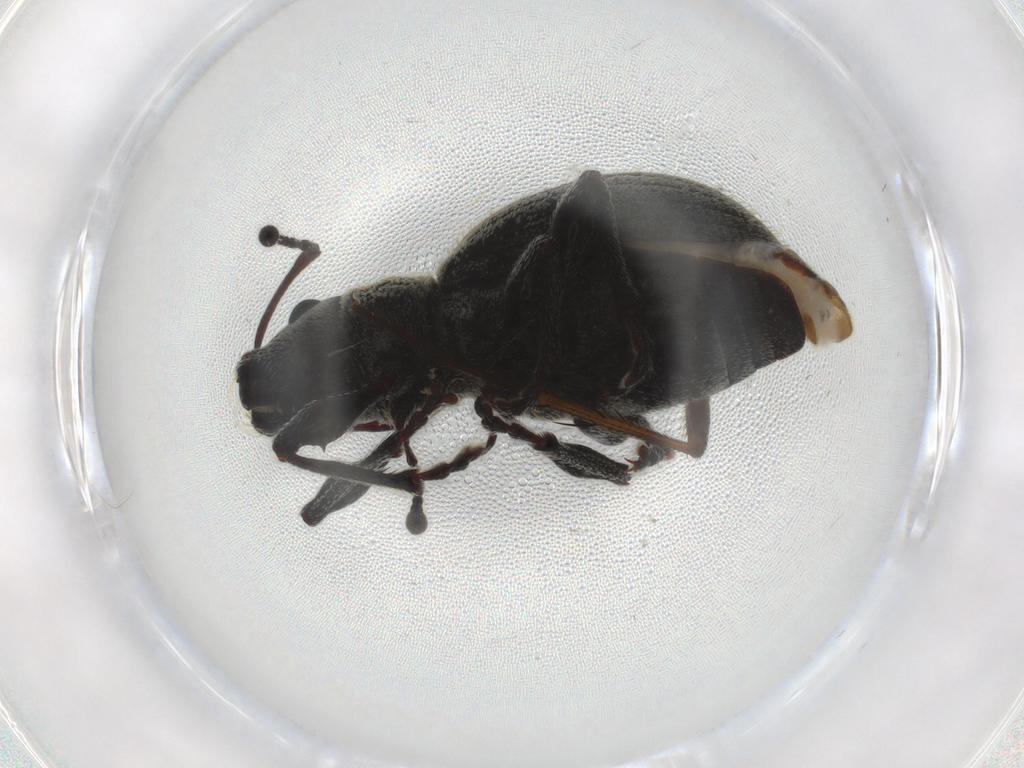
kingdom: Animalia
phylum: Arthropoda
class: Insecta
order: Coleoptera
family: Curculionidae
